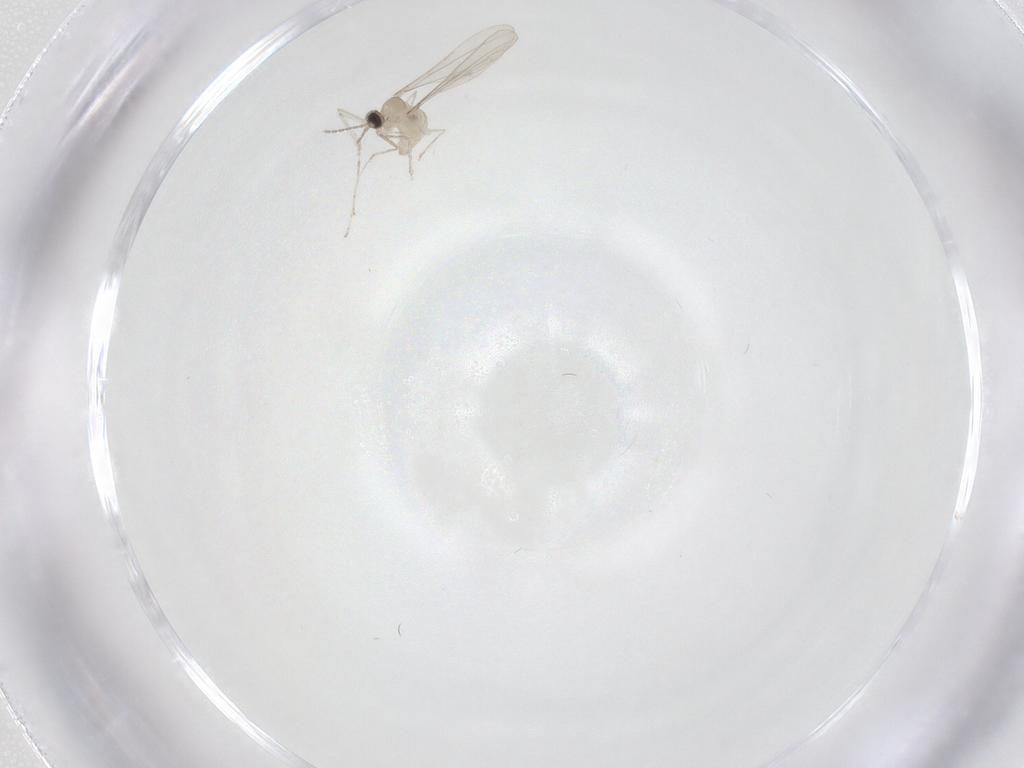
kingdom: Animalia
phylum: Arthropoda
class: Insecta
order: Diptera
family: Cecidomyiidae
